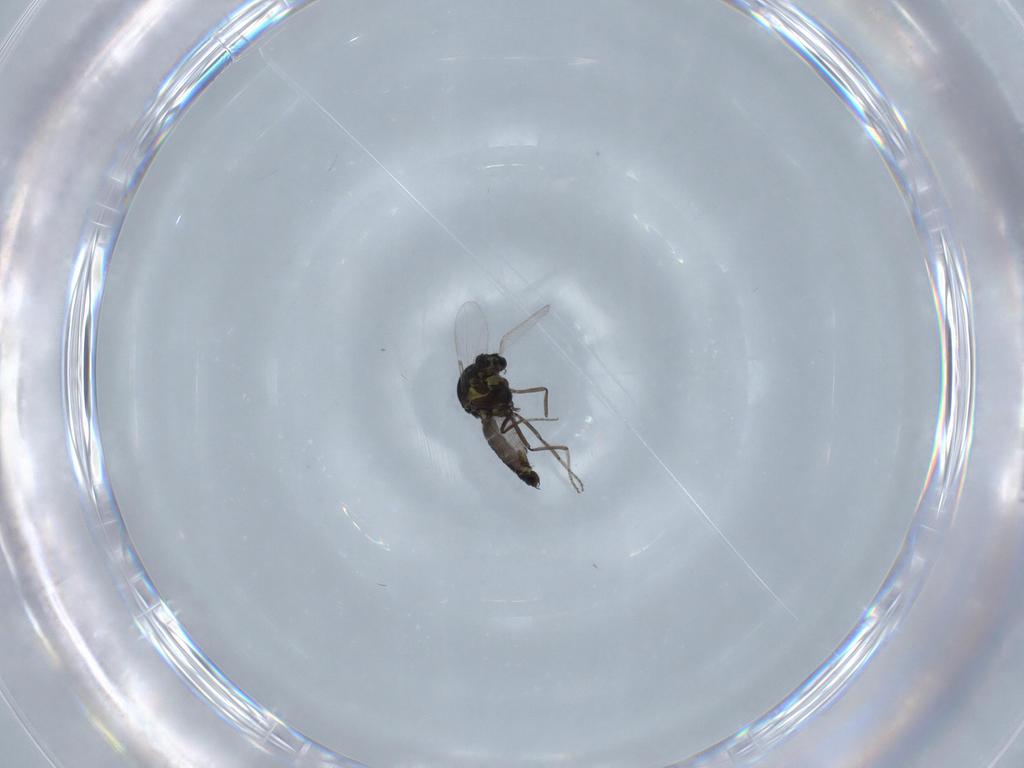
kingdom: Animalia
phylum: Arthropoda
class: Insecta
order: Diptera
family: Ceratopogonidae
